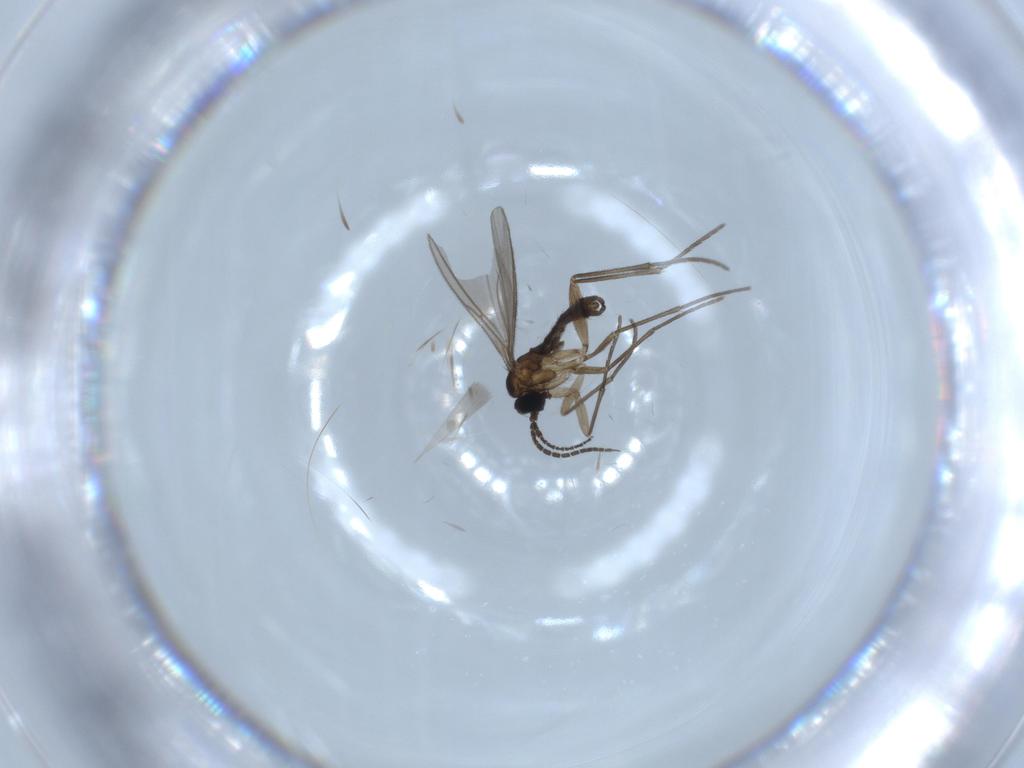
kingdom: Animalia
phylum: Arthropoda
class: Insecta
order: Diptera
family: Sciaridae
